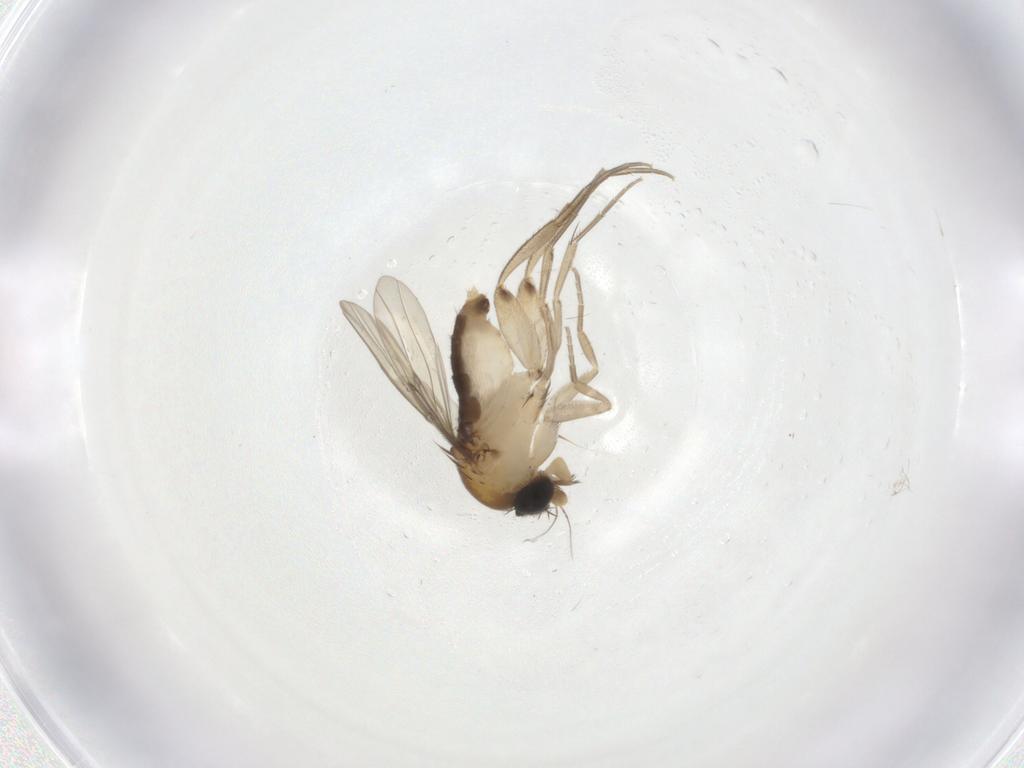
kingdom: Animalia
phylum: Arthropoda
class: Insecta
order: Diptera
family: Phoridae
